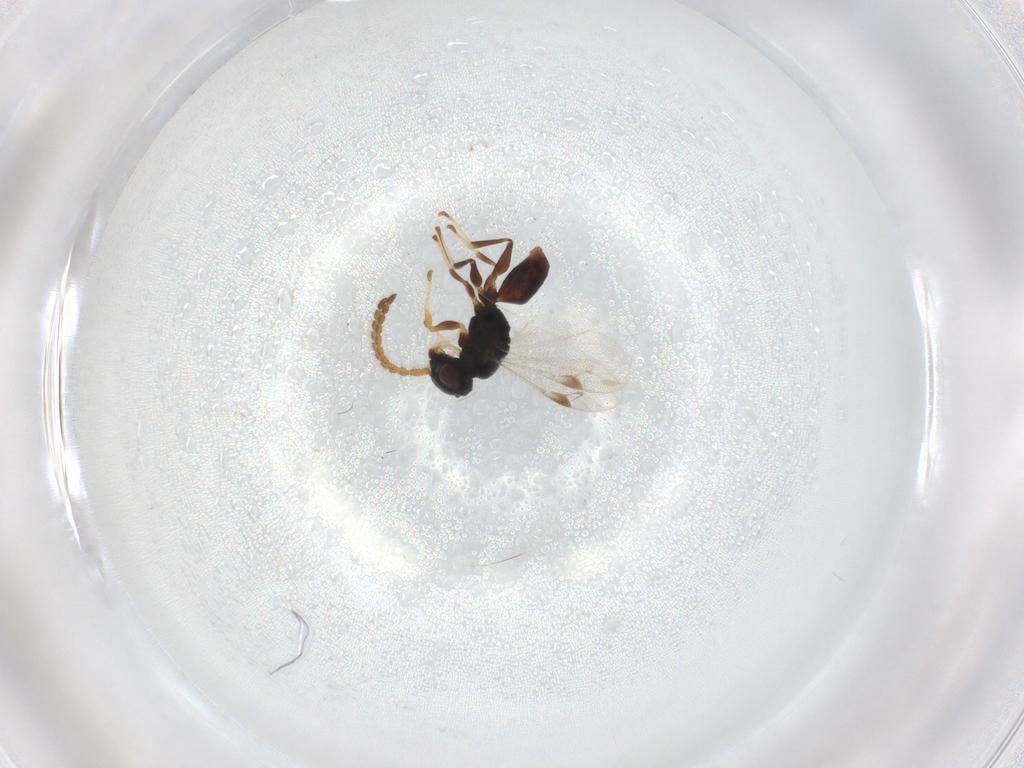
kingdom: Animalia
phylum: Arthropoda
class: Insecta
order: Hymenoptera
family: Dryinidae
